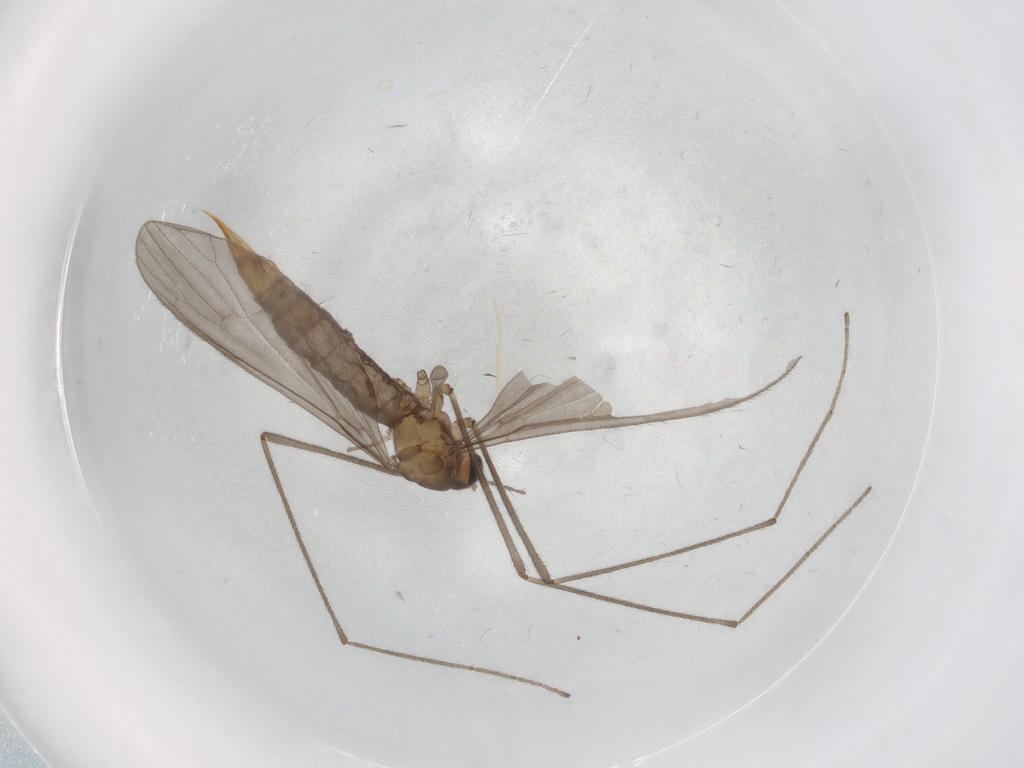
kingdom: Animalia
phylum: Arthropoda
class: Insecta
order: Diptera
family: Limoniidae
